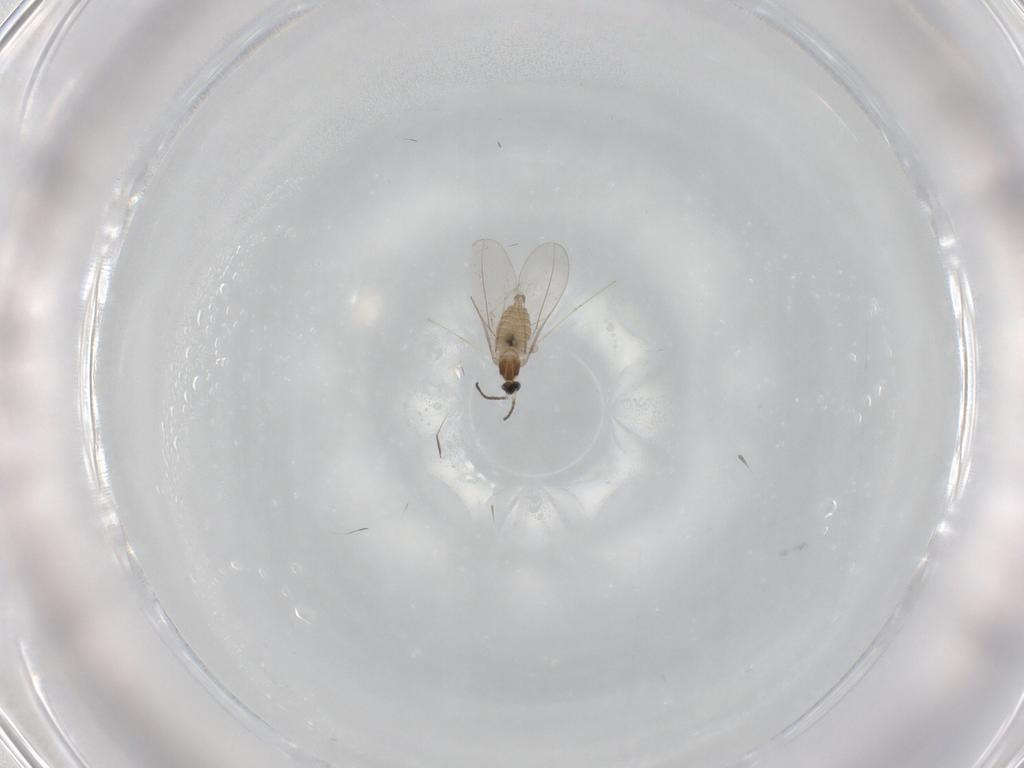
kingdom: Animalia
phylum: Arthropoda
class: Insecta
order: Diptera
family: Cecidomyiidae
